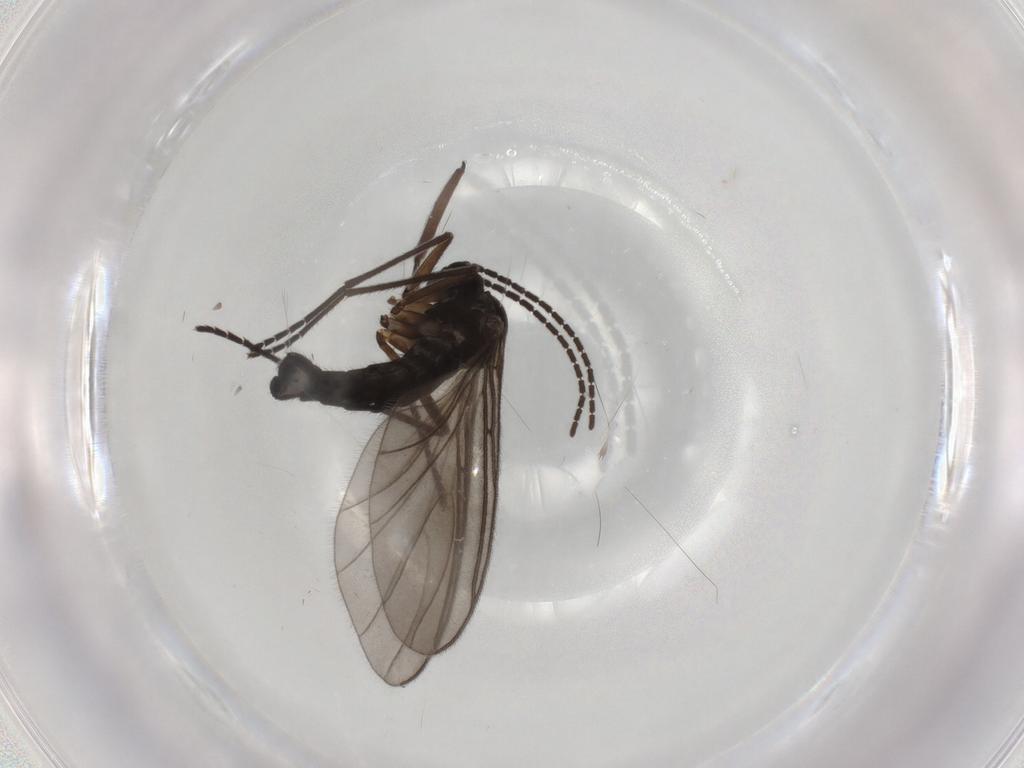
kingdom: Animalia
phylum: Arthropoda
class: Insecta
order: Diptera
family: Sciaridae
